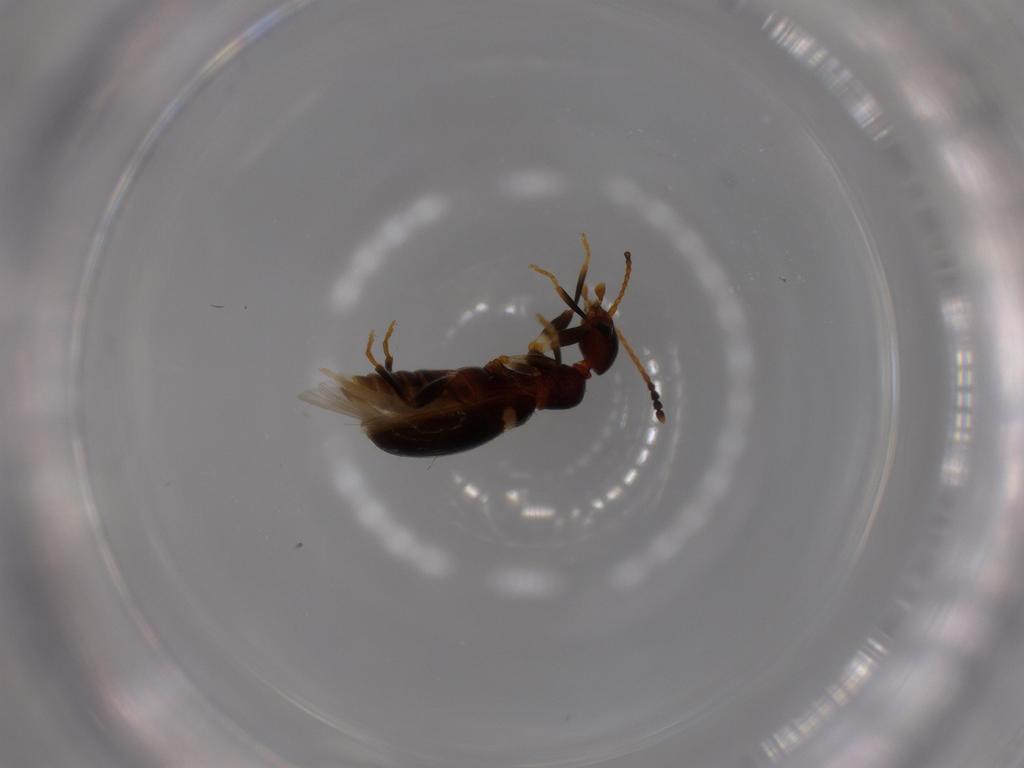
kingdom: Animalia
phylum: Arthropoda
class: Insecta
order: Coleoptera
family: Anthicidae
